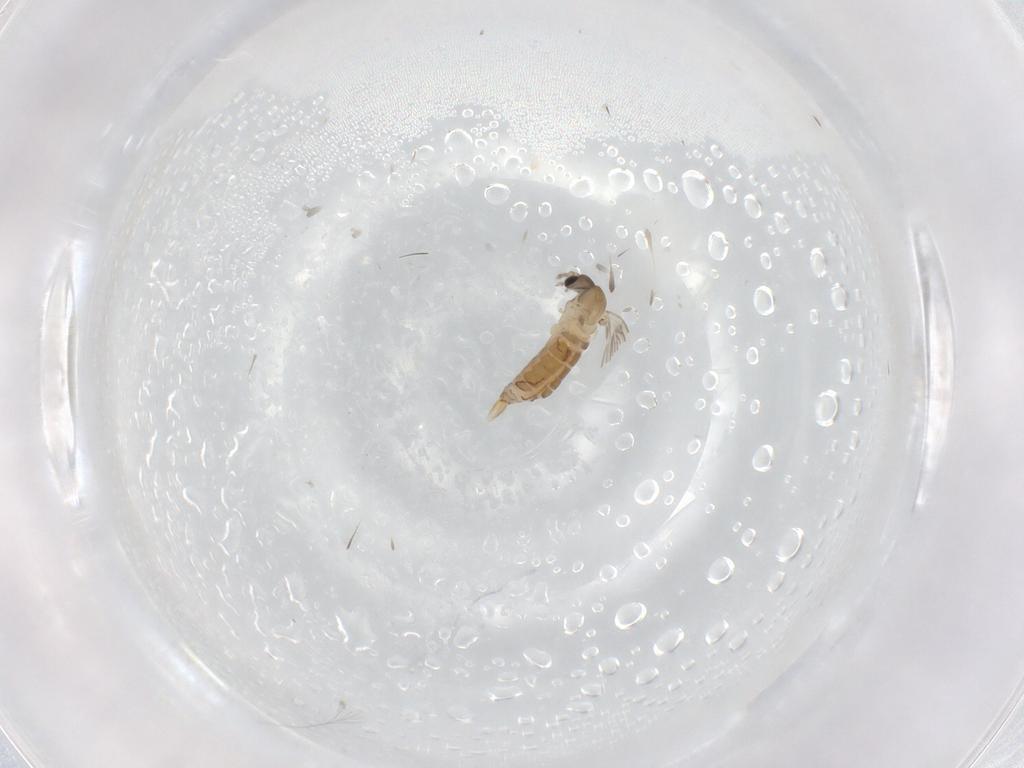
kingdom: Animalia
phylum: Arthropoda
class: Insecta
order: Diptera
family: Psychodidae
